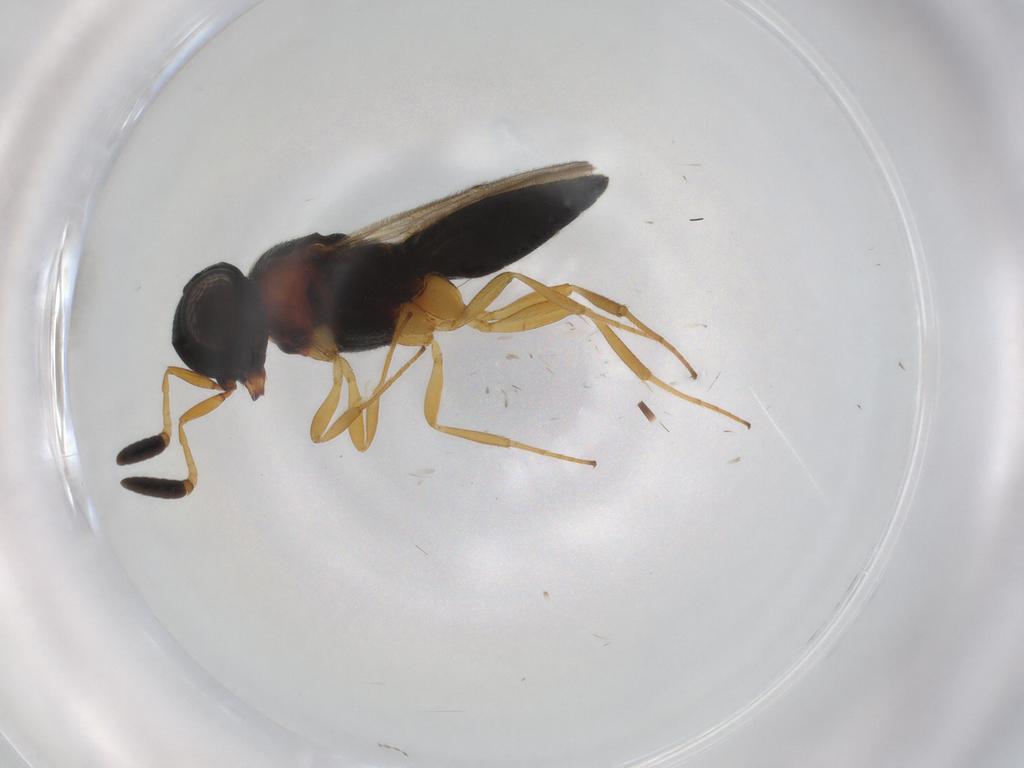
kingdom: Animalia
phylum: Arthropoda
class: Insecta
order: Hymenoptera
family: Scelionidae
